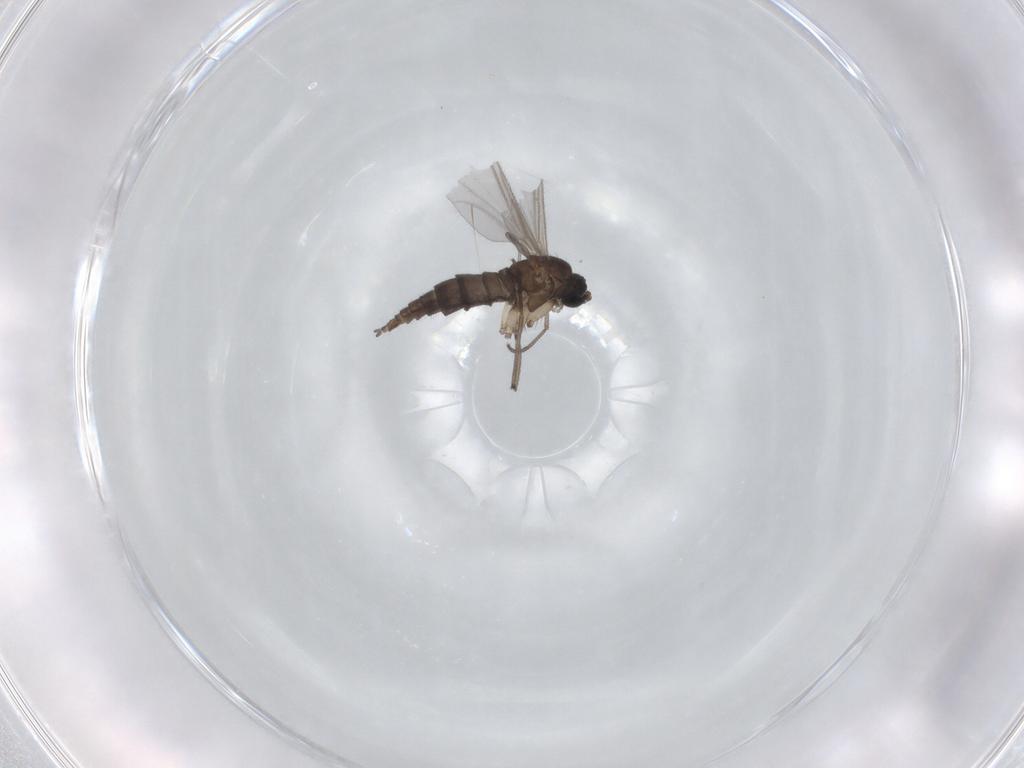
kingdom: Animalia
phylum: Arthropoda
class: Insecta
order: Diptera
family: Sciaridae
